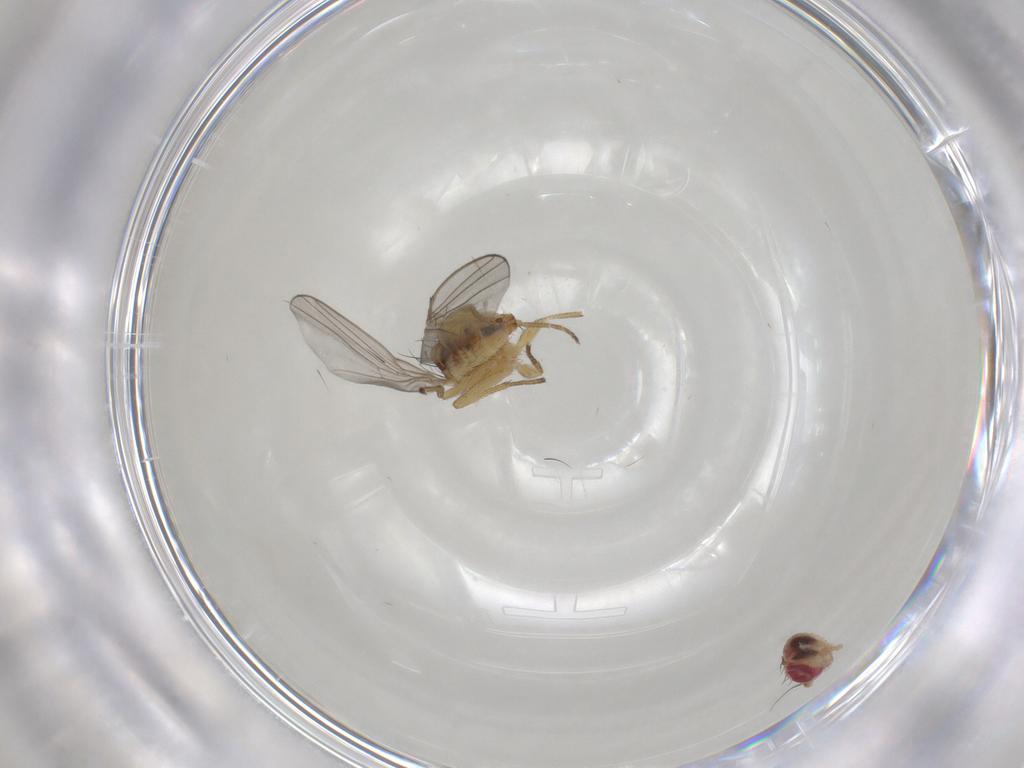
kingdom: Animalia
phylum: Arthropoda
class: Insecta
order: Diptera
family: Agromyzidae
